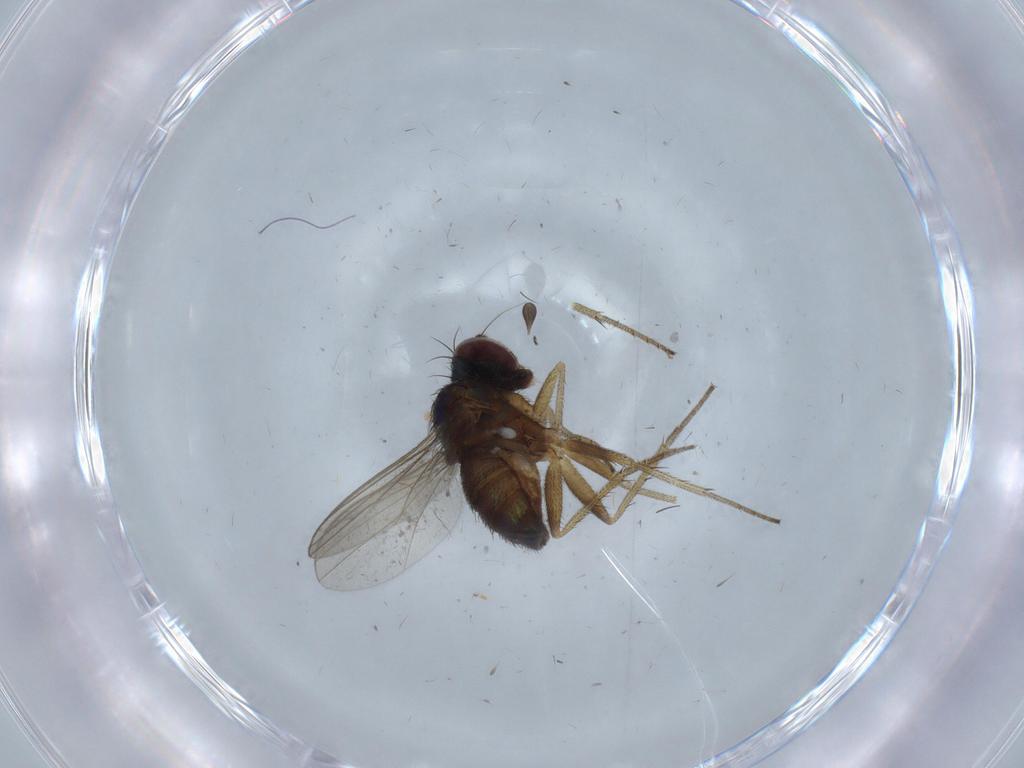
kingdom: Animalia
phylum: Arthropoda
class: Insecta
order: Diptera
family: Dolichopodidae
